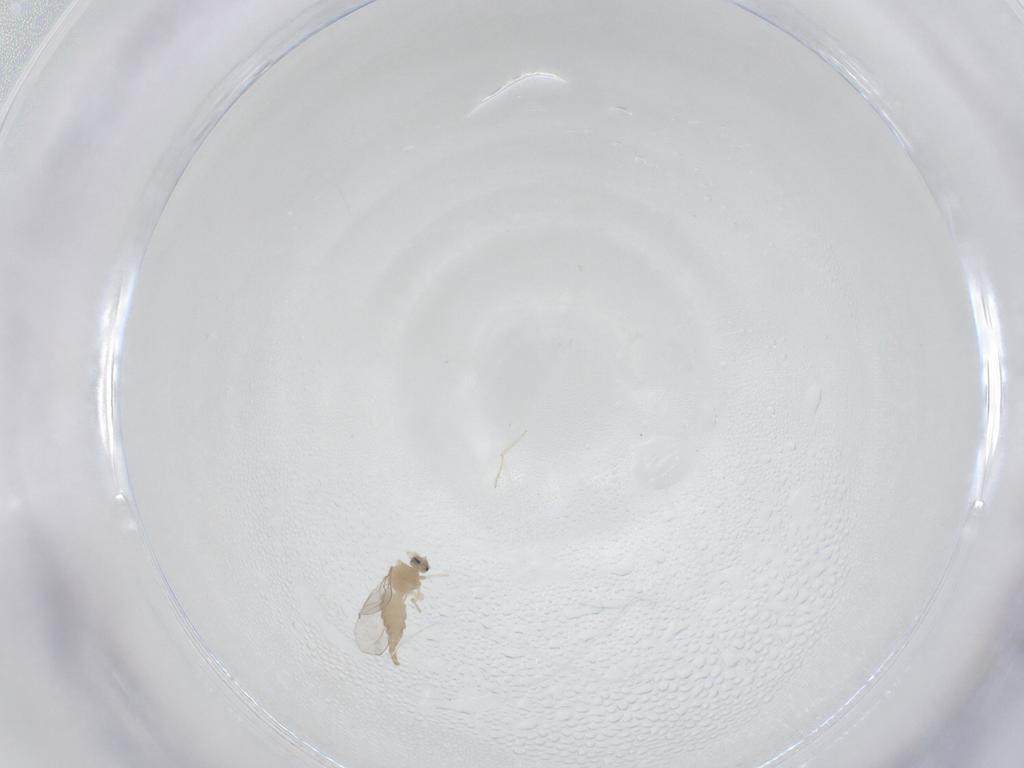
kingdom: Animalia
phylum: Arthropoda
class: Insecta
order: Diptera
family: Cecidomyiidae
